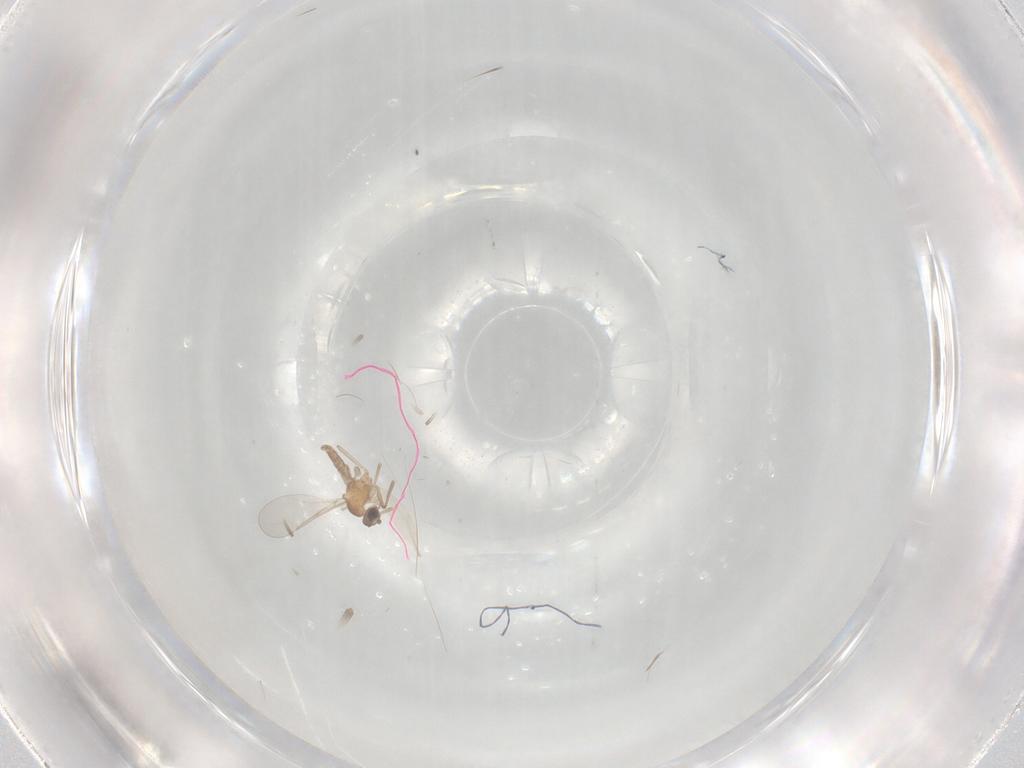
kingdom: Animalia
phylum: Arthropoda
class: Insecta
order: Diptera
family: Cecidomyiidae
